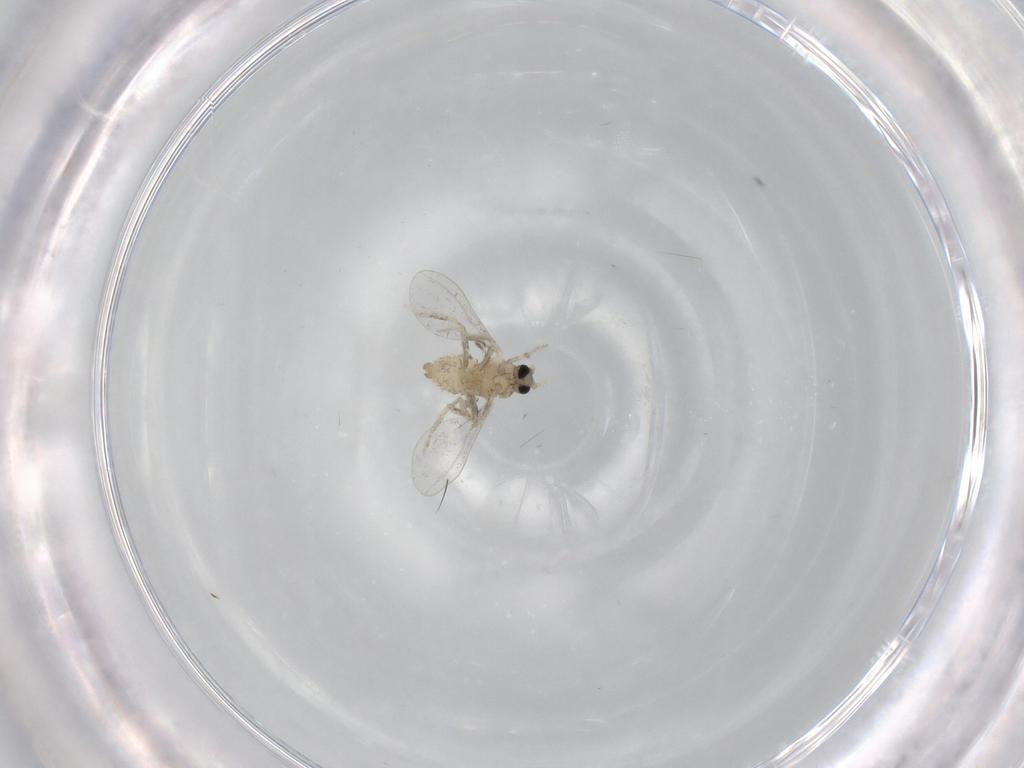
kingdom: Animalia
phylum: Arthropoda
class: Insecta
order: Diptera
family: Cecidomyiidae
